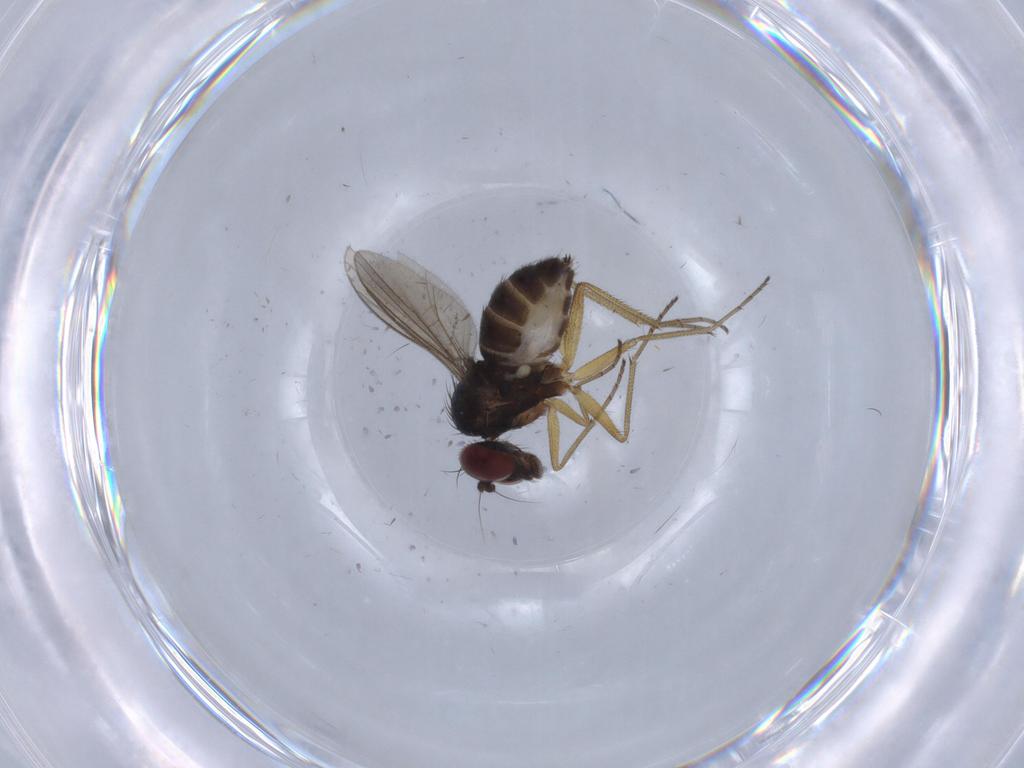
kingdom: Animalia
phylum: Arthropoda
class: Insecta
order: Diptera
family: Dolichopodidae
